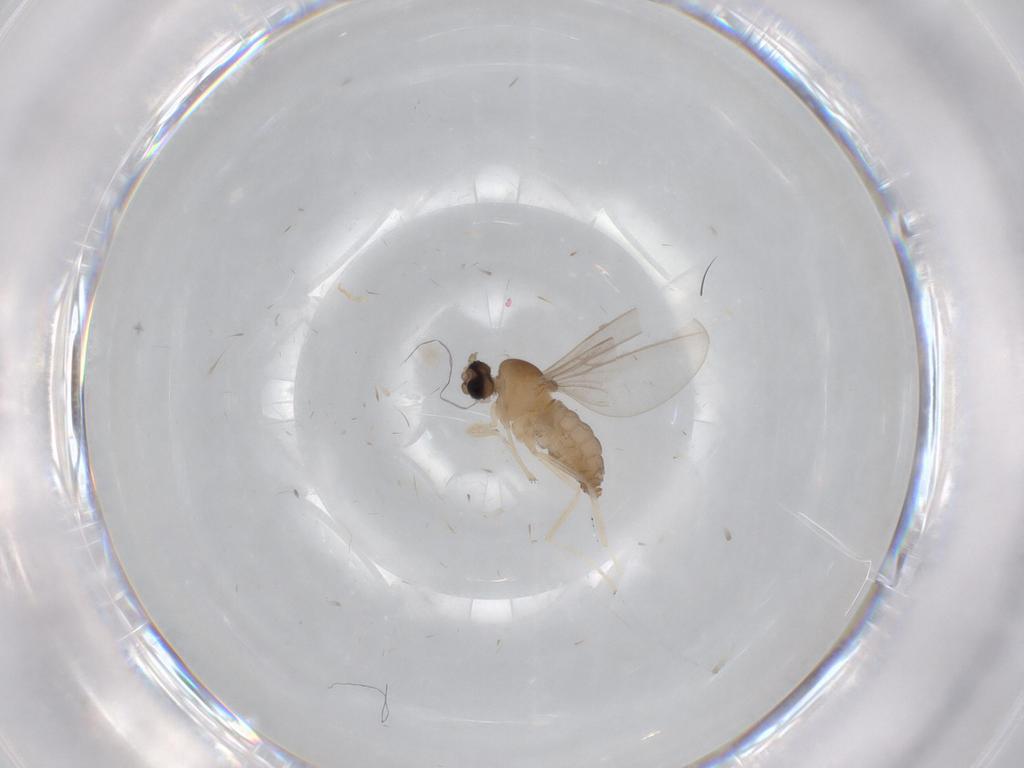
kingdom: Animalia
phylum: Arthropoda
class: Insecta
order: Diptera
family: Cecidomyiidae
